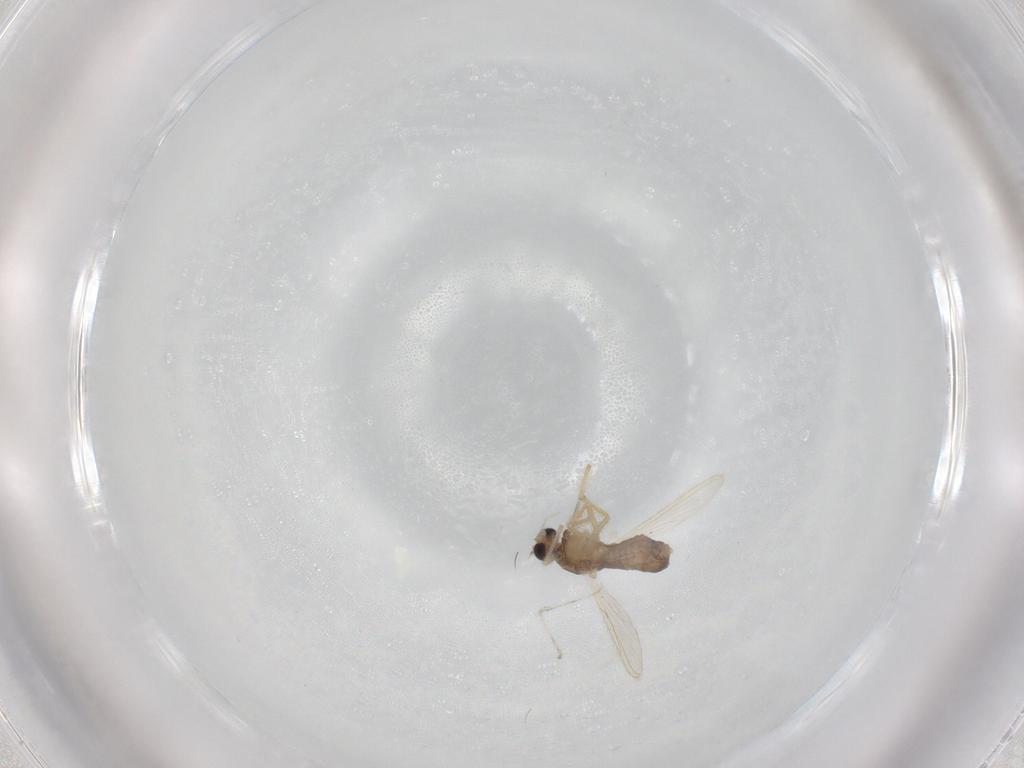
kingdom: Animalia
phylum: Arthropoda
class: Insecta
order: Diptera
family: Chironomidae
